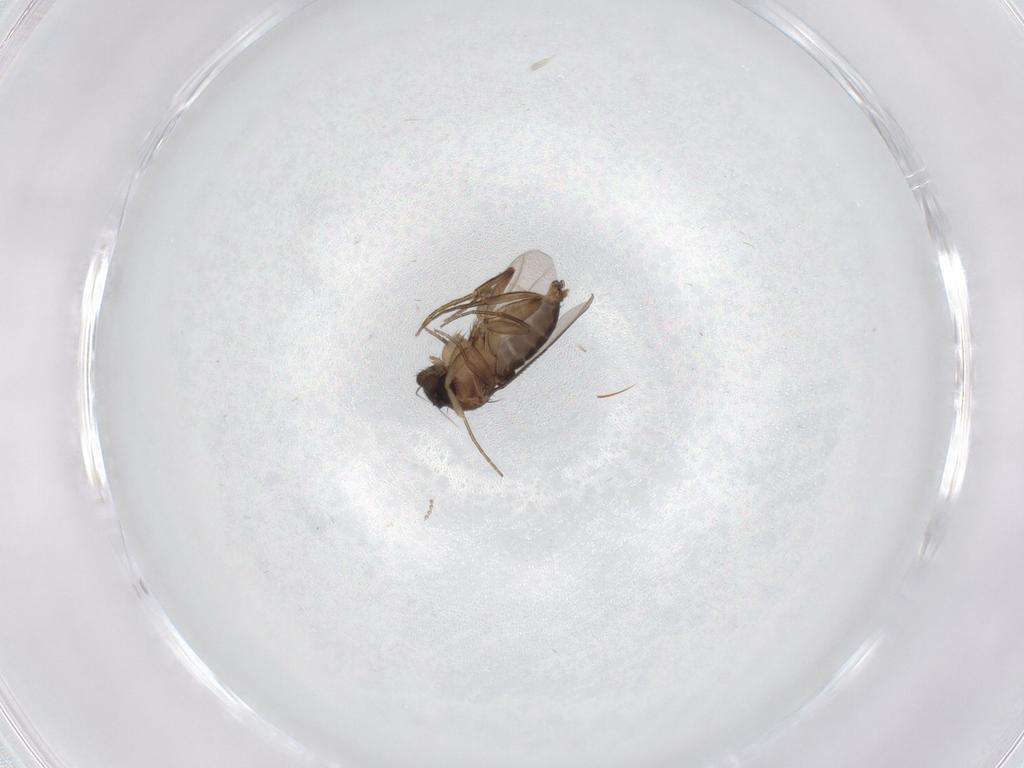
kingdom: Animalia
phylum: Arthropoda
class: Insecta
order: Diptera
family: Phoridae
